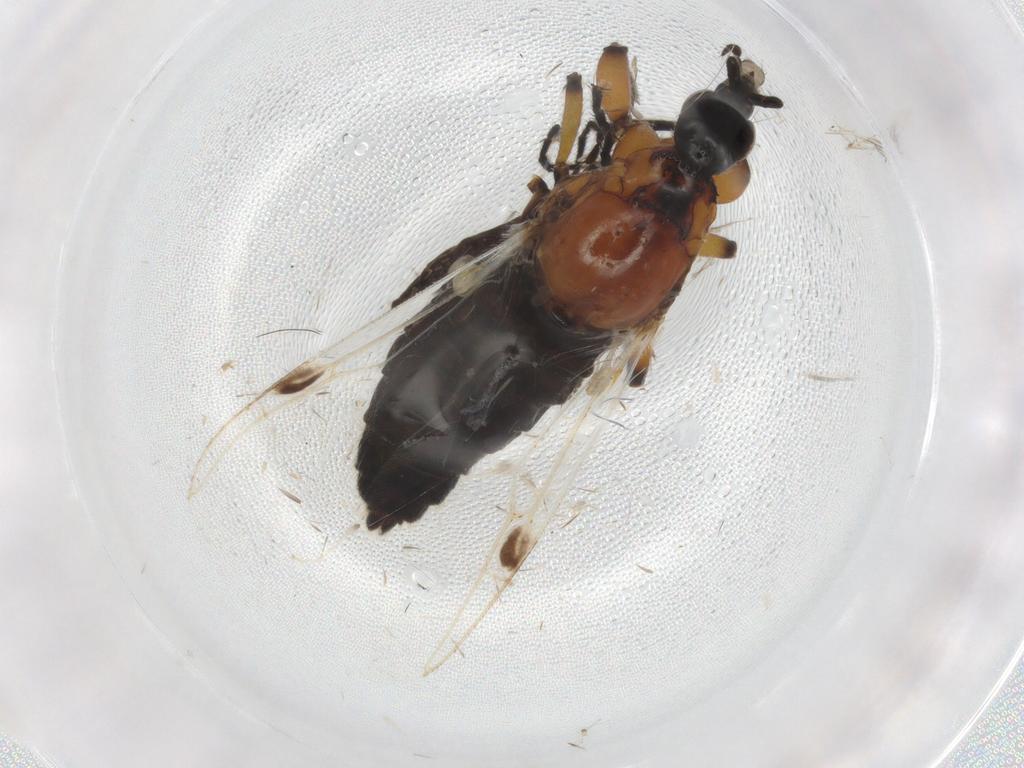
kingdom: Animalia
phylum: Arthropoda
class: Insecta
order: Diptera
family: Bibionidae
